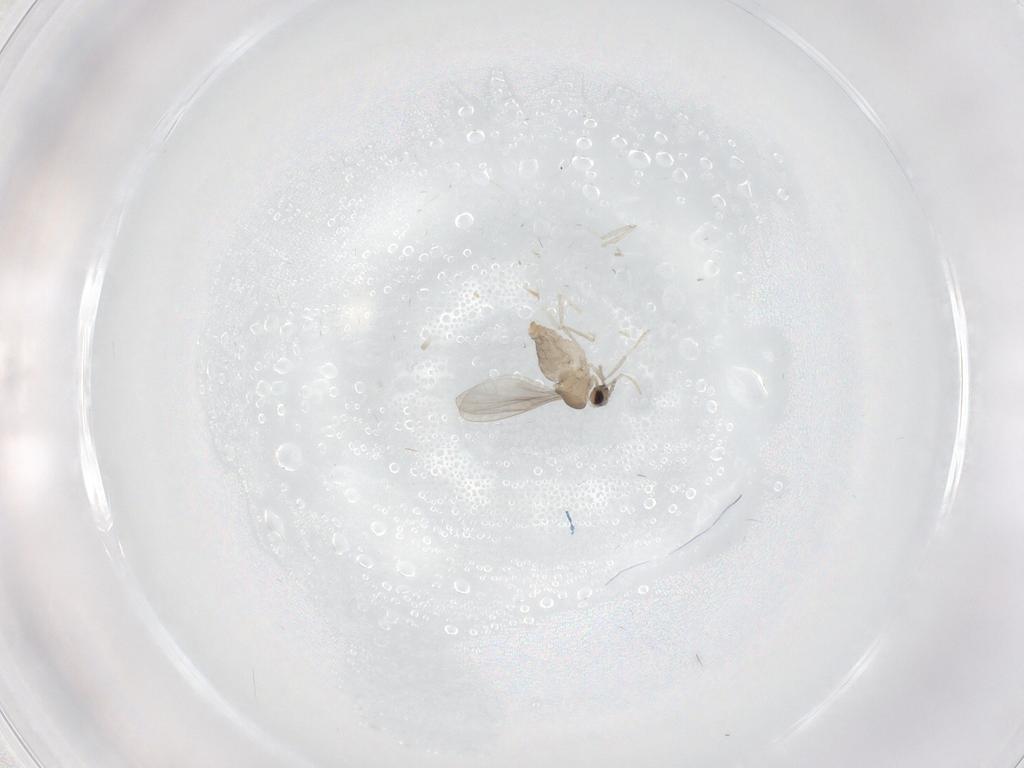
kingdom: Animalia
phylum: Arthropoda
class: Insecta
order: Diptera
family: Cecidomyiidae
